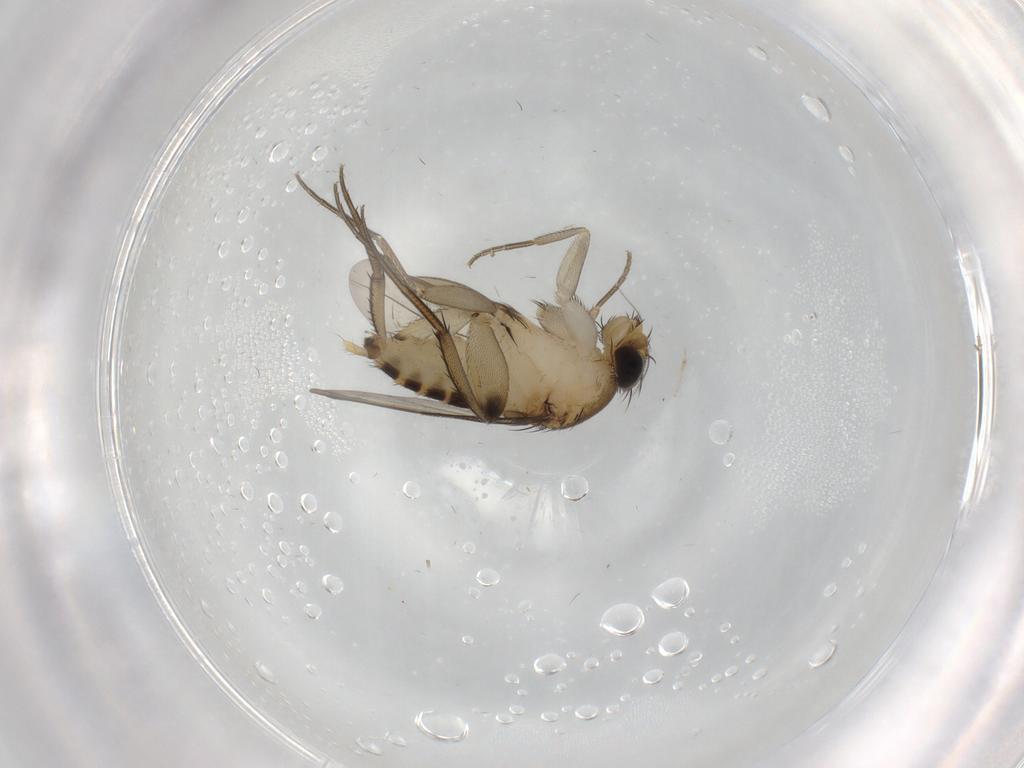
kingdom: Animalia
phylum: Arthropoda
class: Insecta
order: Diptera
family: Phoridae
